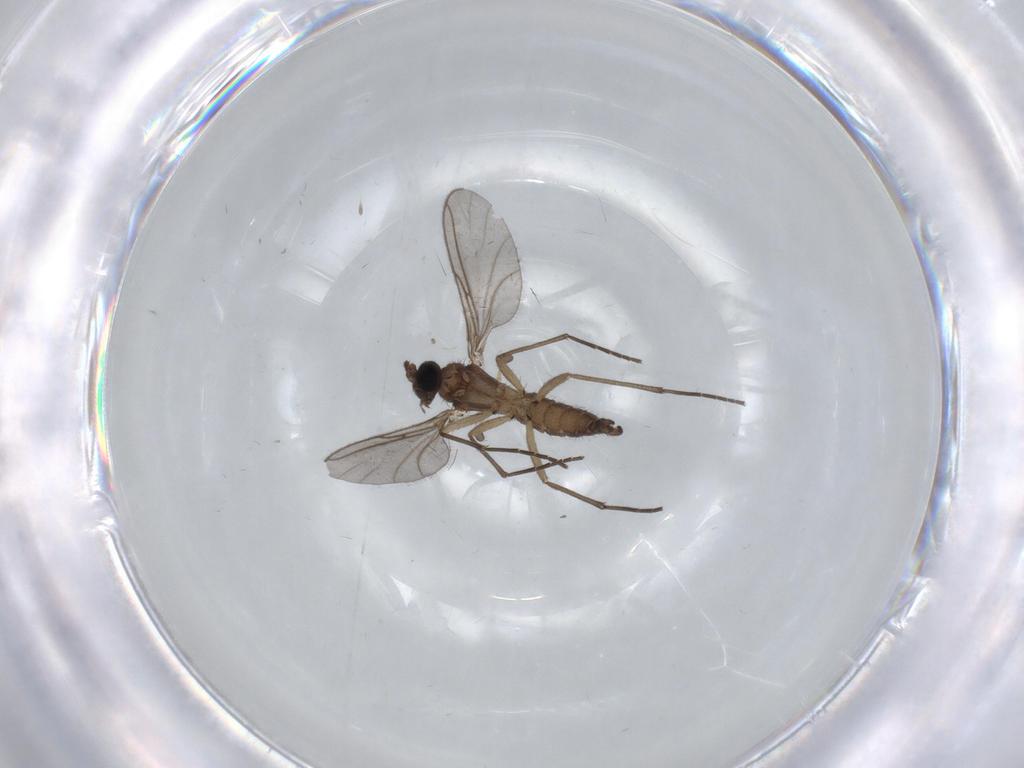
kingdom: Animalia
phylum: Arthropoda
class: Insecta
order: Diptera
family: Sciaridae
